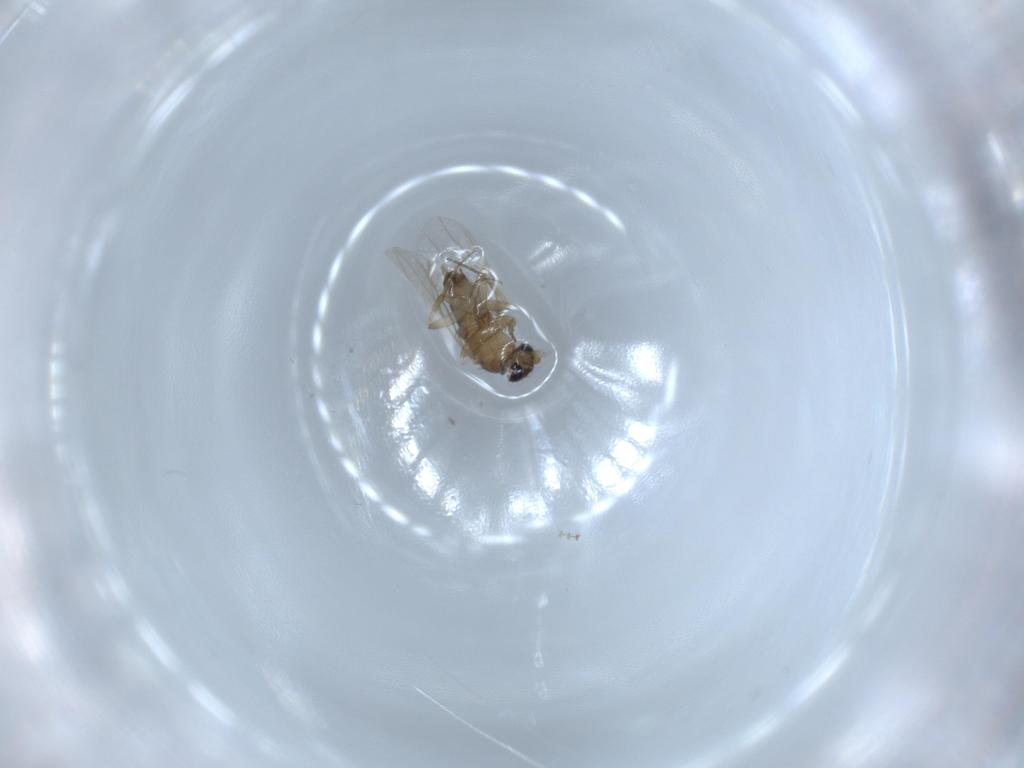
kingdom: Animalia
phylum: Arthropoda
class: Insecta
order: Diptera
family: Phoridae
